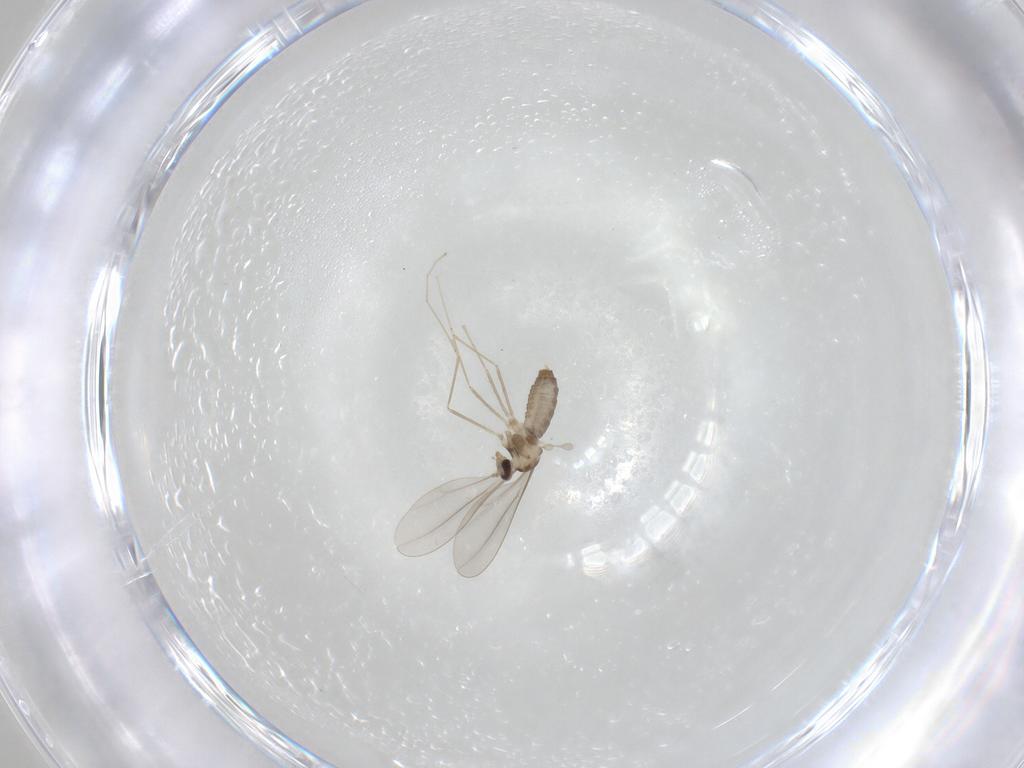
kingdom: Animalia
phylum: Arthropoda
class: Insecta
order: Diptera
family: Cecidomyiidae
